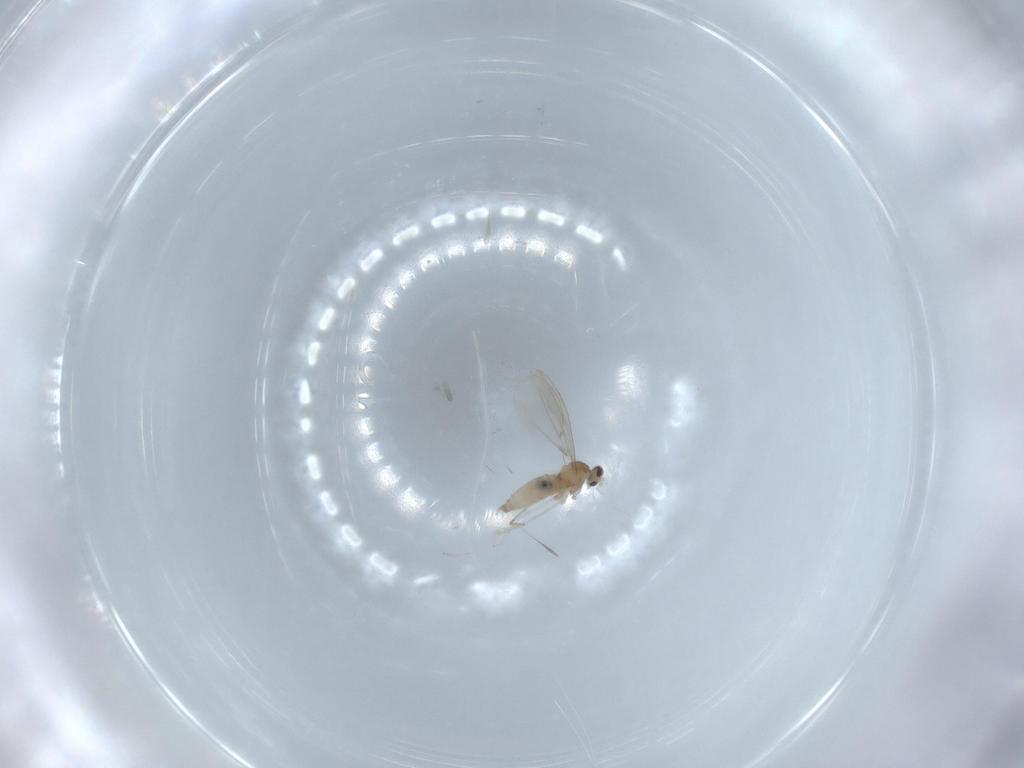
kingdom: Animalia
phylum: Arthropoda
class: Insecta
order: Diptera
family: Cecidomyiidae
